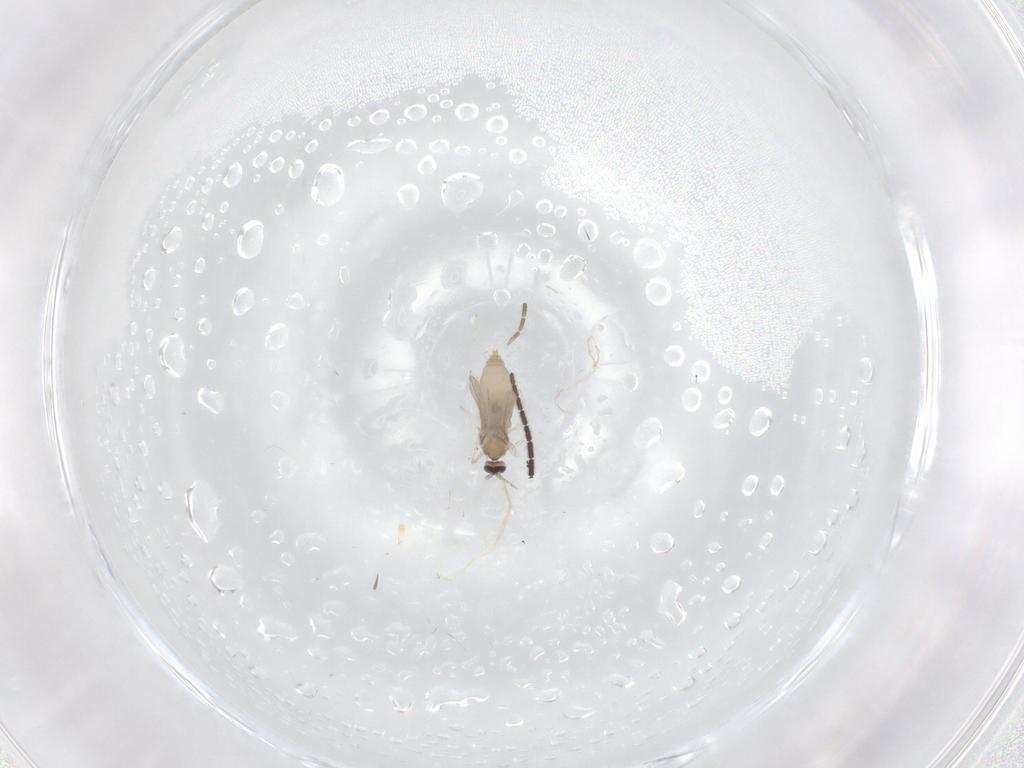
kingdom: Animalia
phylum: Arthropoda
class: Insecta
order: Diptera
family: Sciaridae
